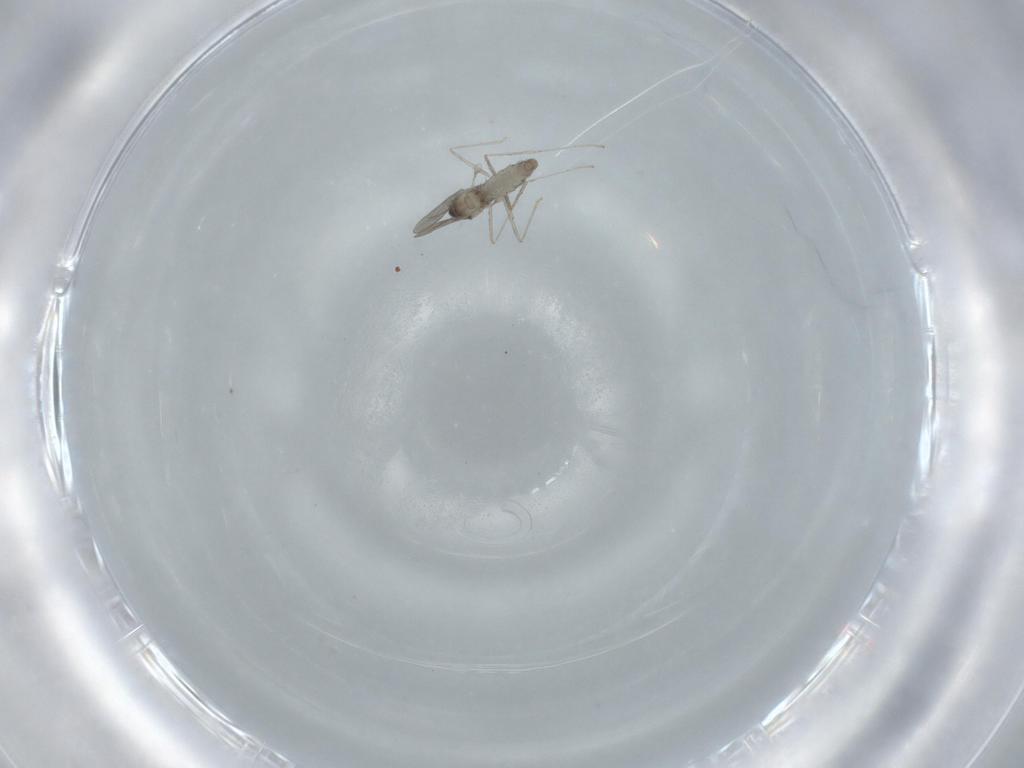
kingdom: Animalia
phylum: Arthropoda
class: Insecta
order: Diptera
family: Cecidomyiidae
